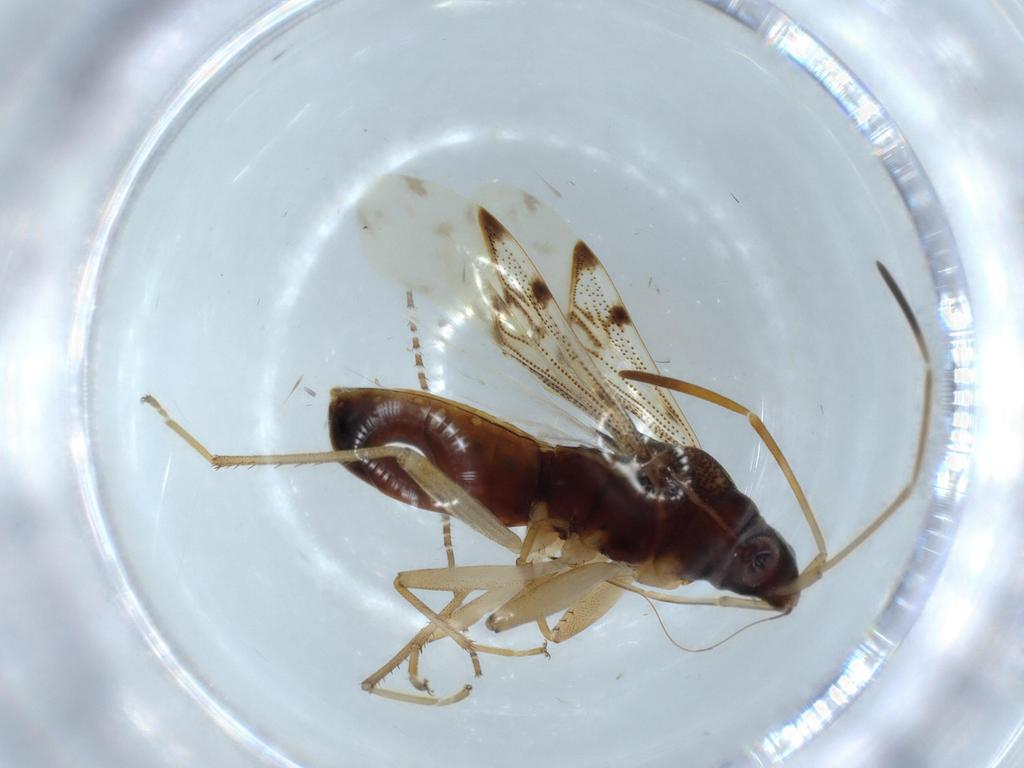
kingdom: Animalia
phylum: Arthropoda
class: Insecta
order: Hemiptera
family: Rhyparochromidae
